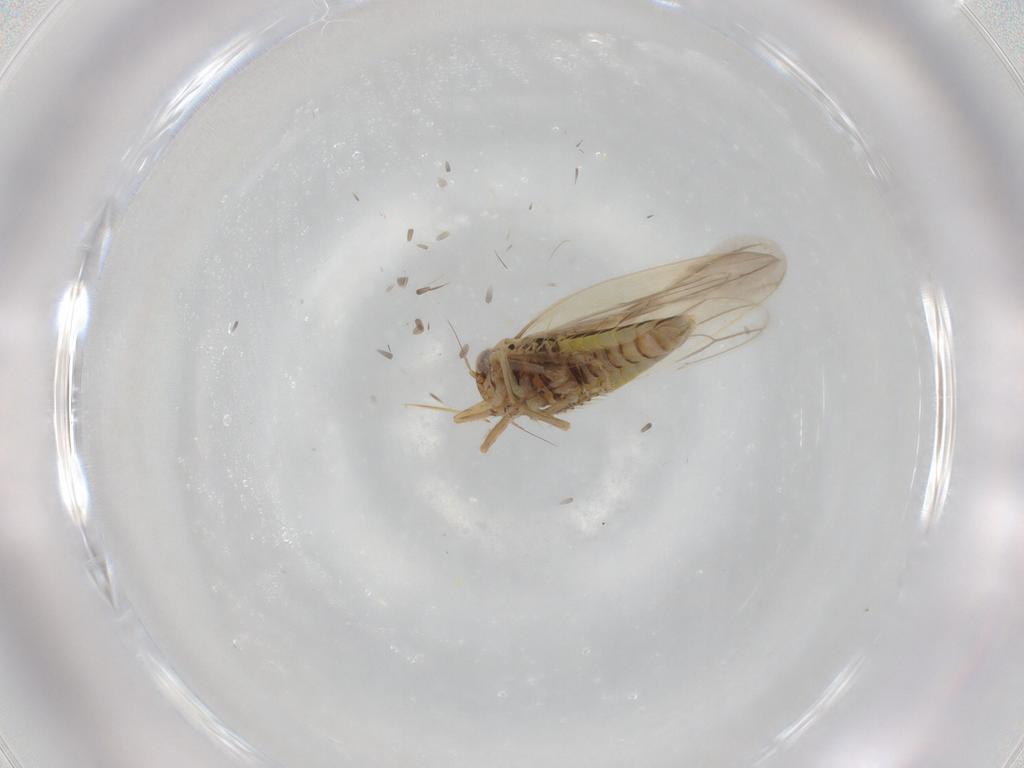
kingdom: Animalia
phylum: Arthropoda
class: Insecta
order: Hemiptera
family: Cicadellidae
